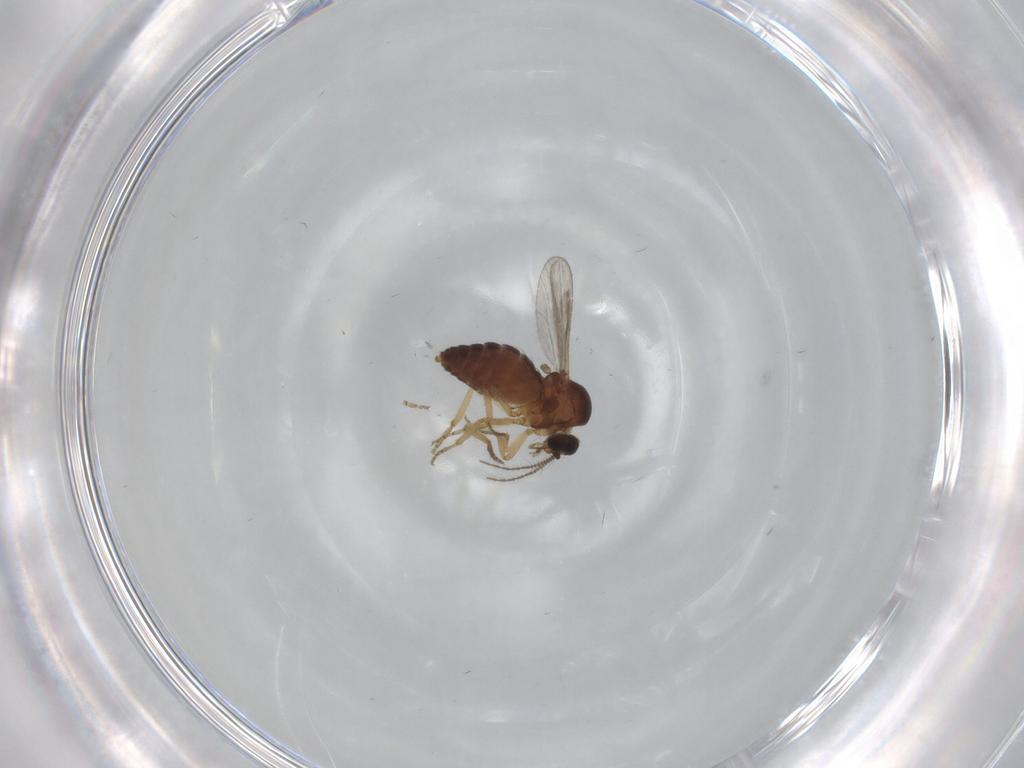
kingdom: Animalia
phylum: Arthropoda
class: Insecta
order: Diptera
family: Ceratopogonidae
